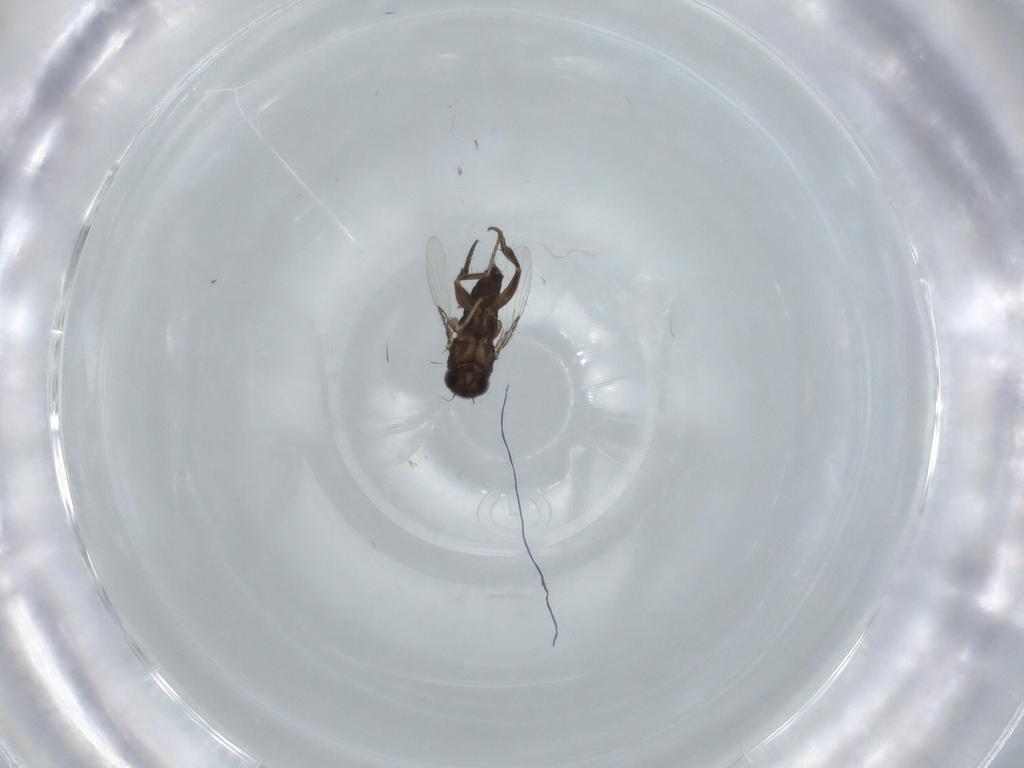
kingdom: Animalia
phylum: Arthropoda
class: Insecta
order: Diptera
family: Phoridae
